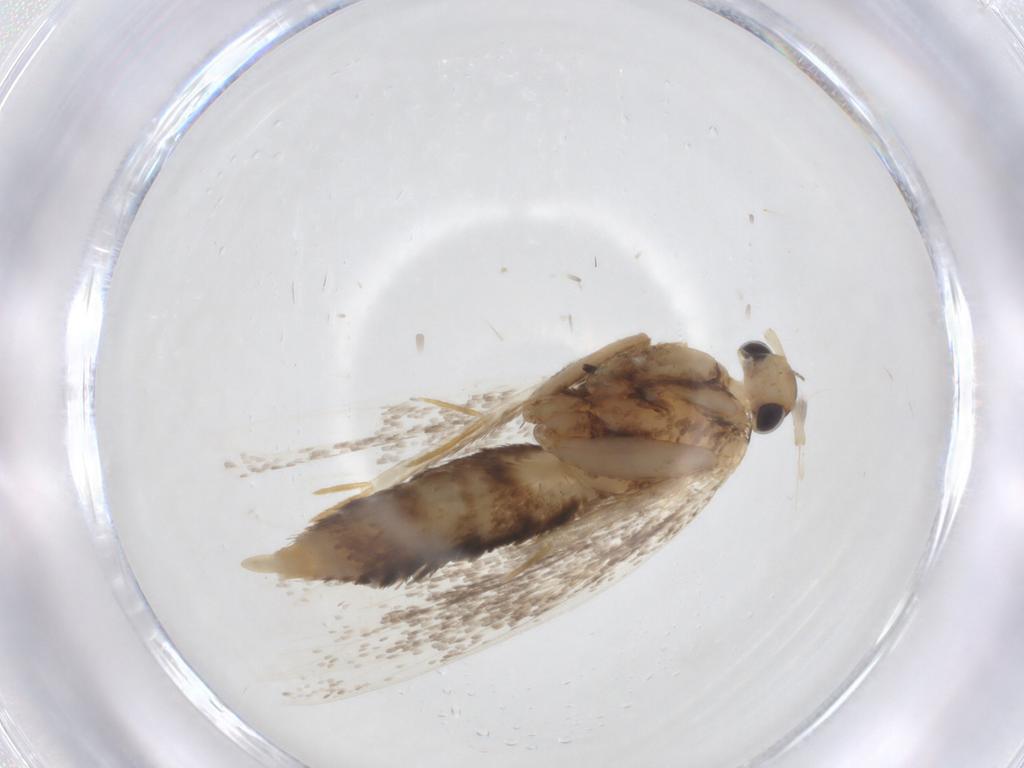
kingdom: Animalia
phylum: Arthropoda
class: Insecta
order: Lepidoptera
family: Lecithoceridae
